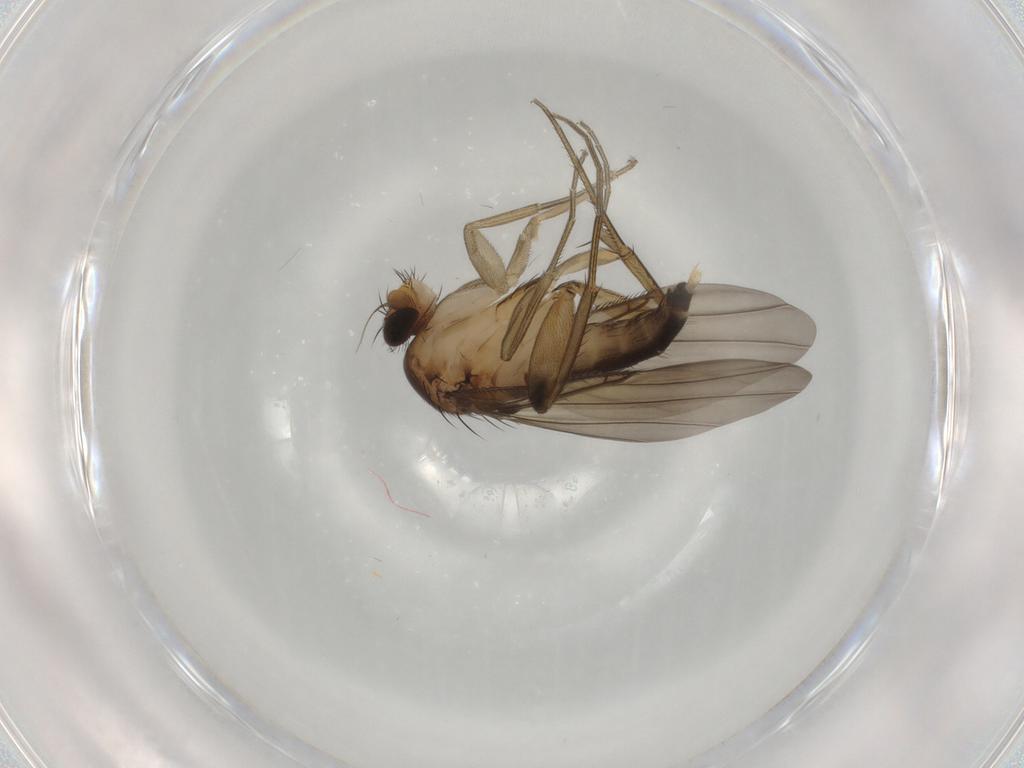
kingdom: Animalia
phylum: Arthropoda
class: Insecta
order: Diptera
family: Phoridae
